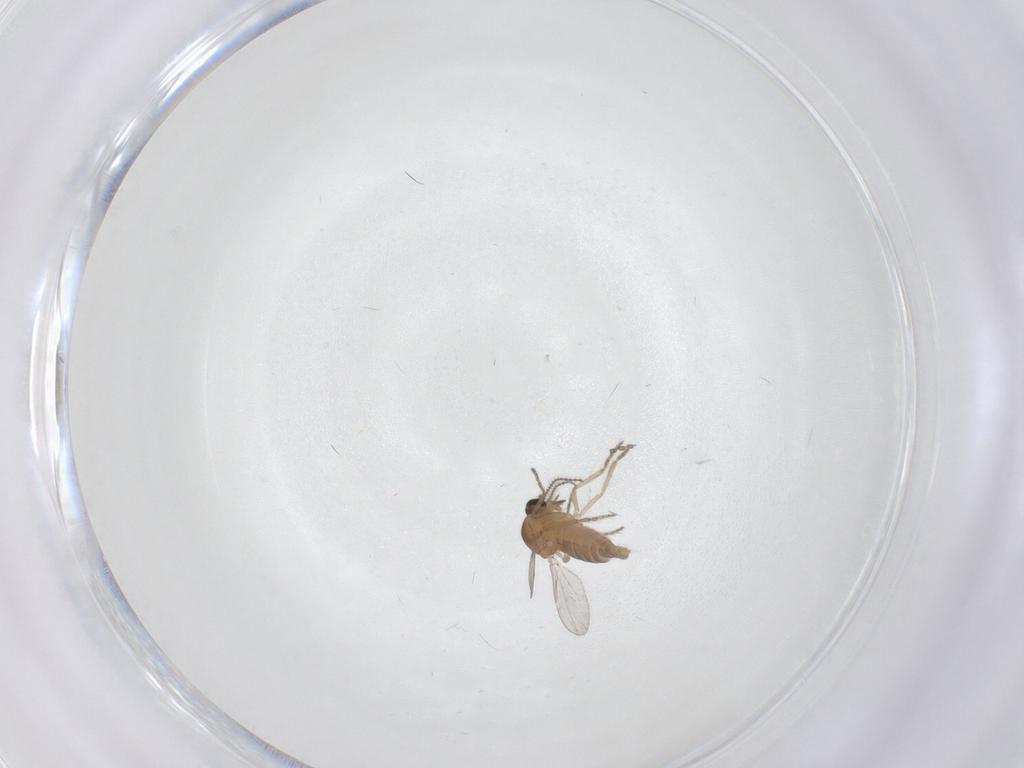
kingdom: Animalia
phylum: Arthropoda
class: Insecta
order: Diptera
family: Ceratopogonidae
